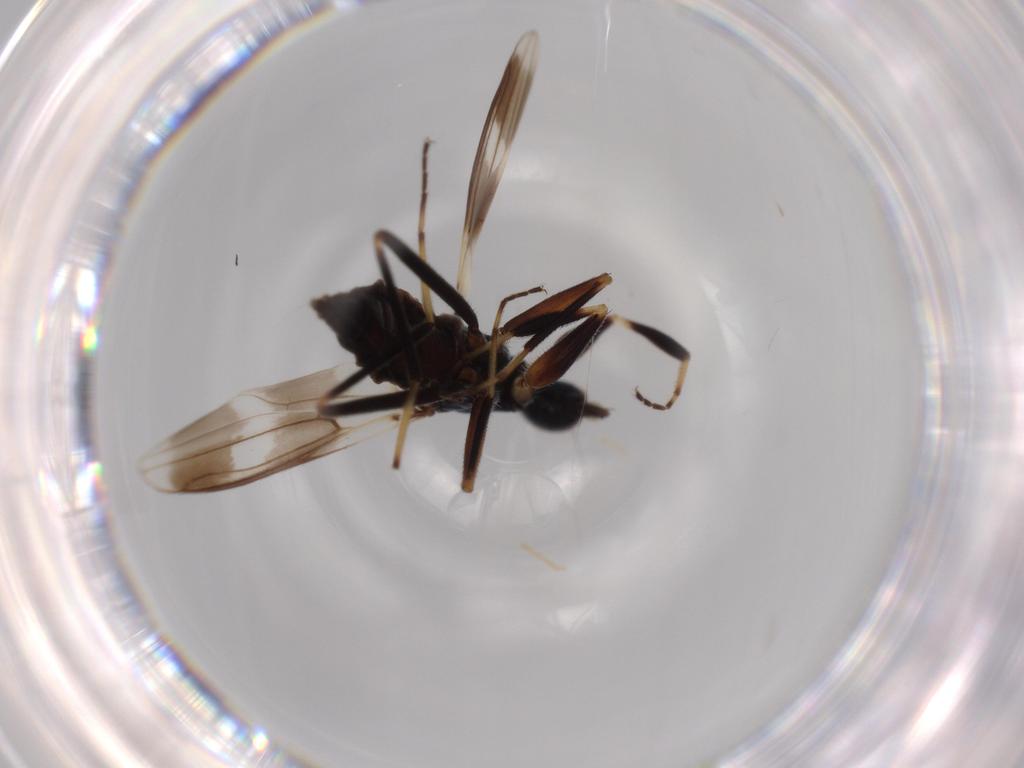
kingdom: Animalia
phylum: Arthropoda
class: Insecta
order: Diptera
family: Hybotidae
